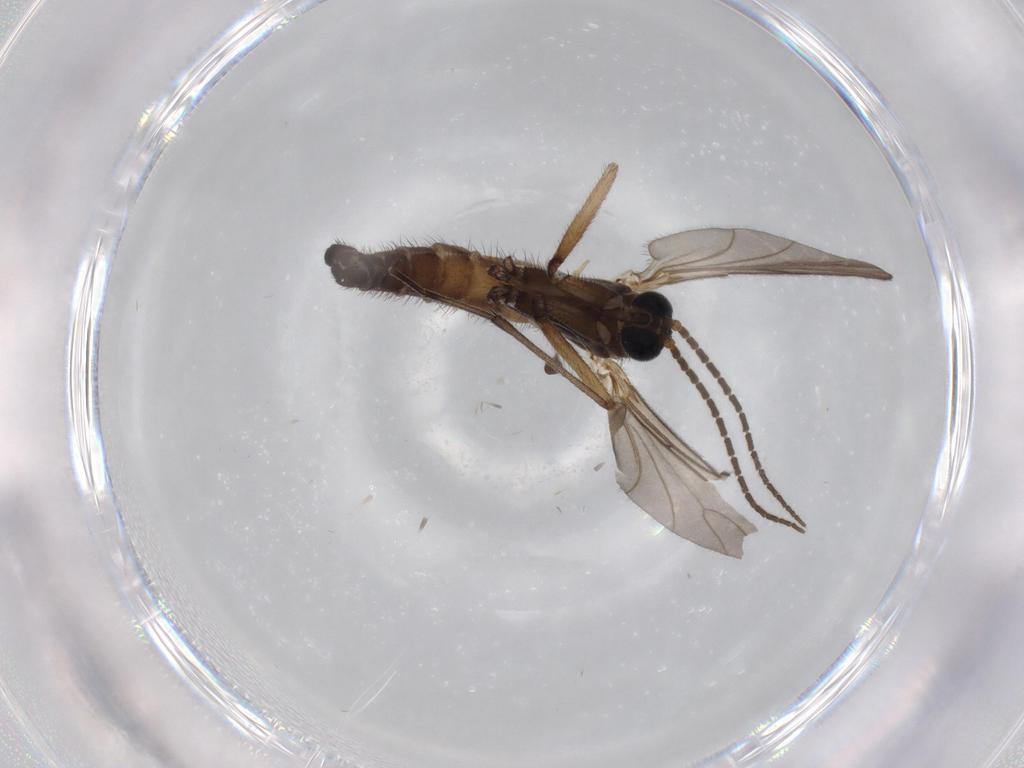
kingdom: Animalia
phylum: Arthropoda
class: Insecta
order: Diptera
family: Sciaridae
